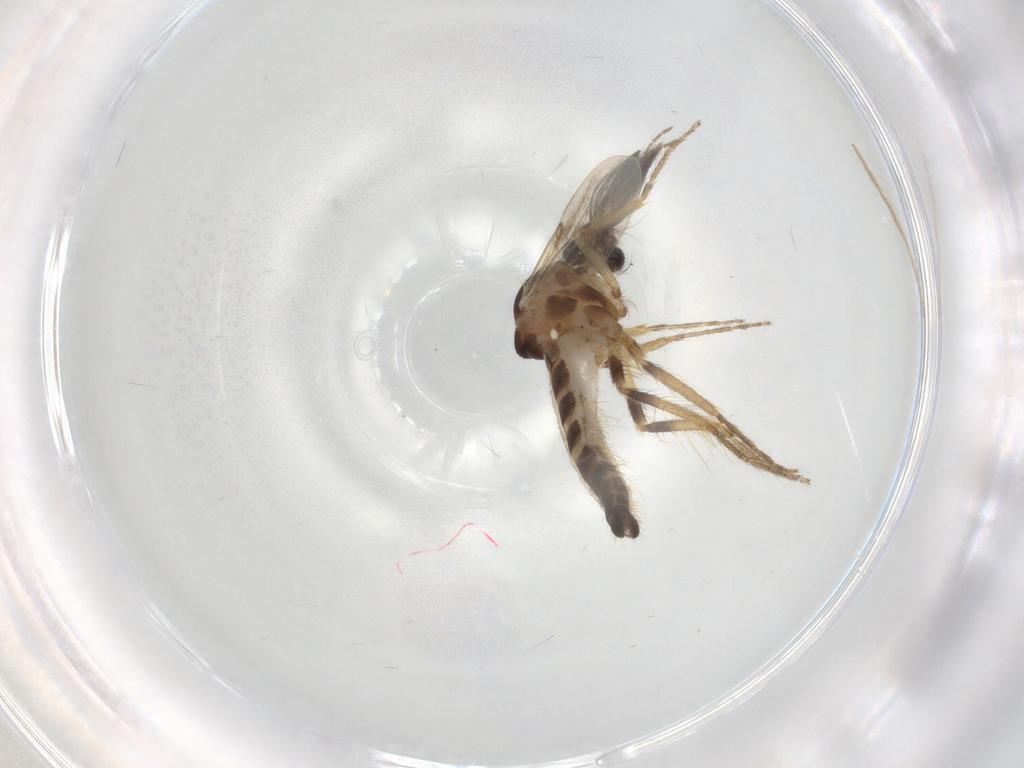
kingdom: Animalia
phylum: Arthropoda
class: Insecta
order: Diptera
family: Ceratopogonidae
